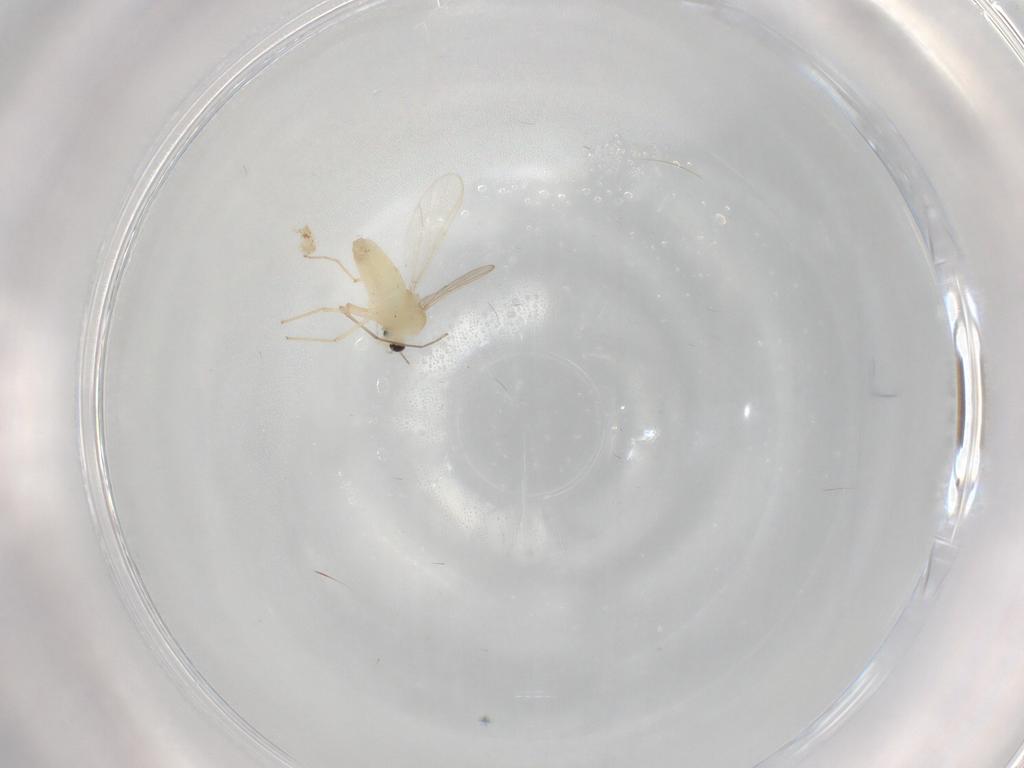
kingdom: Animalia
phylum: Arthropoda
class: Insecta
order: Diptera
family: Chironomidae
